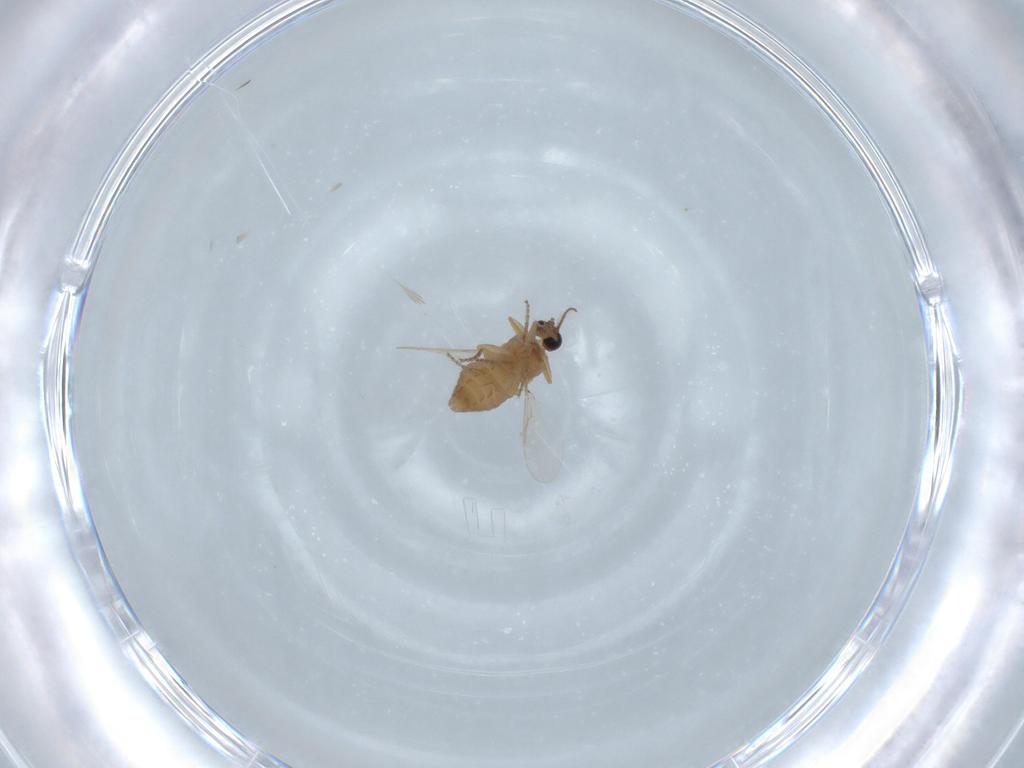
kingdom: Animalia
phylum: Arthropoda
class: Insecta
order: Diptera
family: Ceratopogonidae
